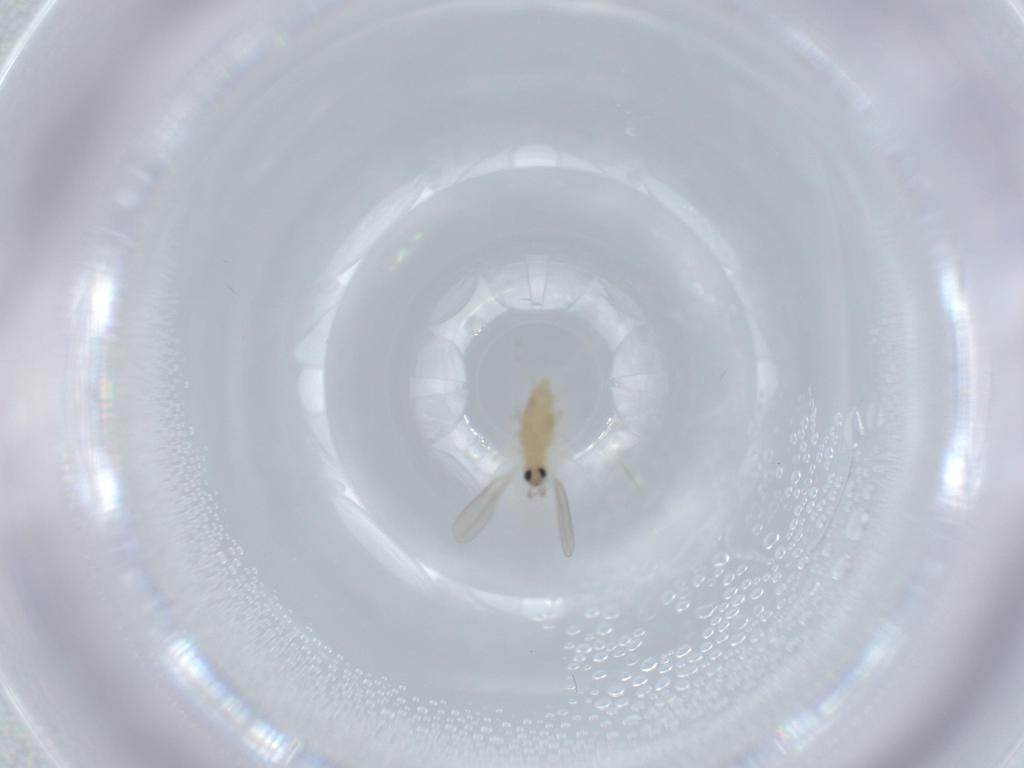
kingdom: Animalia
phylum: Arthropoda
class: Insecta
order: Diptera
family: Cecidomyiidae
